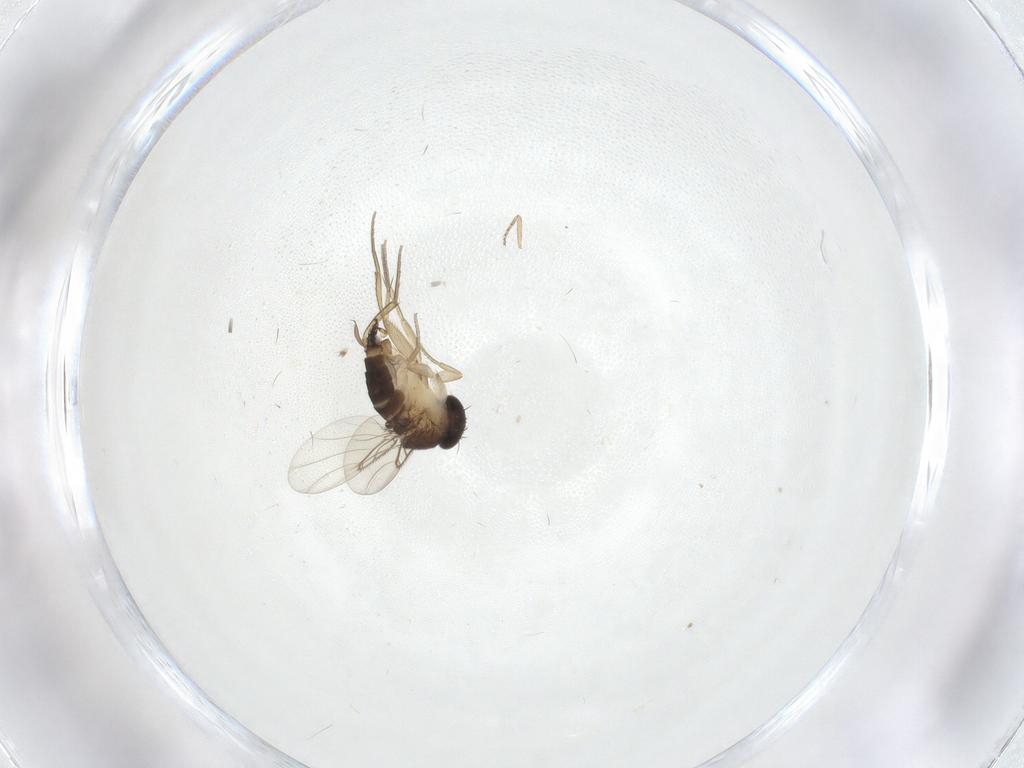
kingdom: Animalia
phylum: Arthropoda
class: Insecta
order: Diptera
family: Ceratopogonidae
